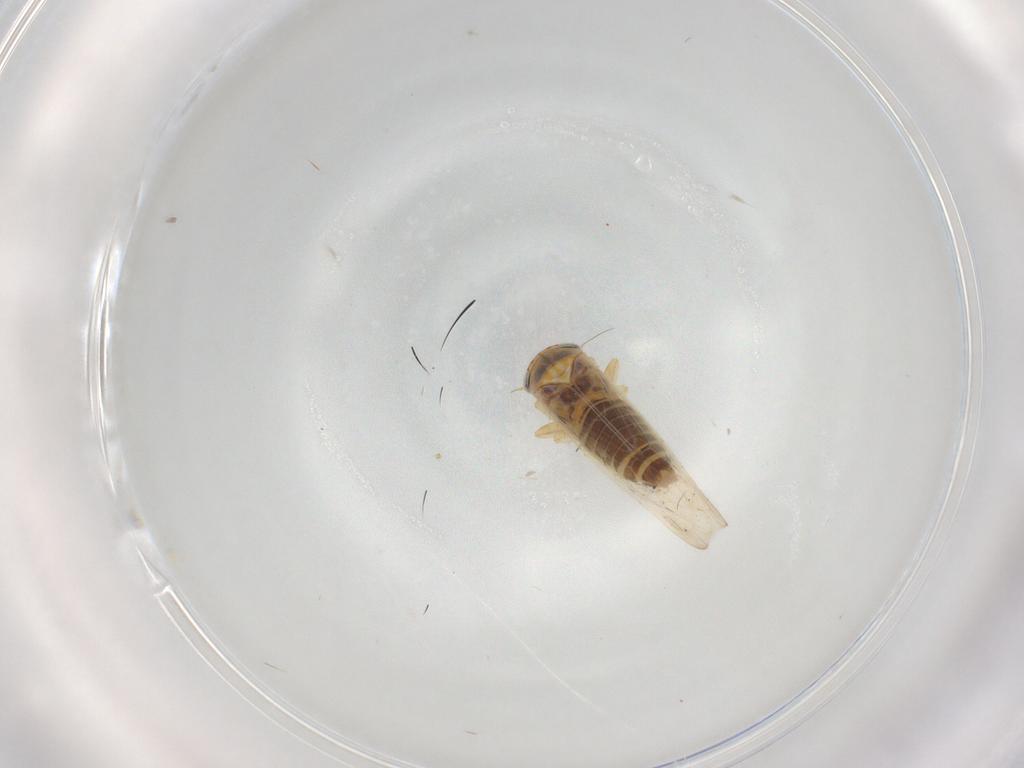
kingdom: Animalia
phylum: Arthropoda
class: Insecta
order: Hemiptera
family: Cicadellidae
